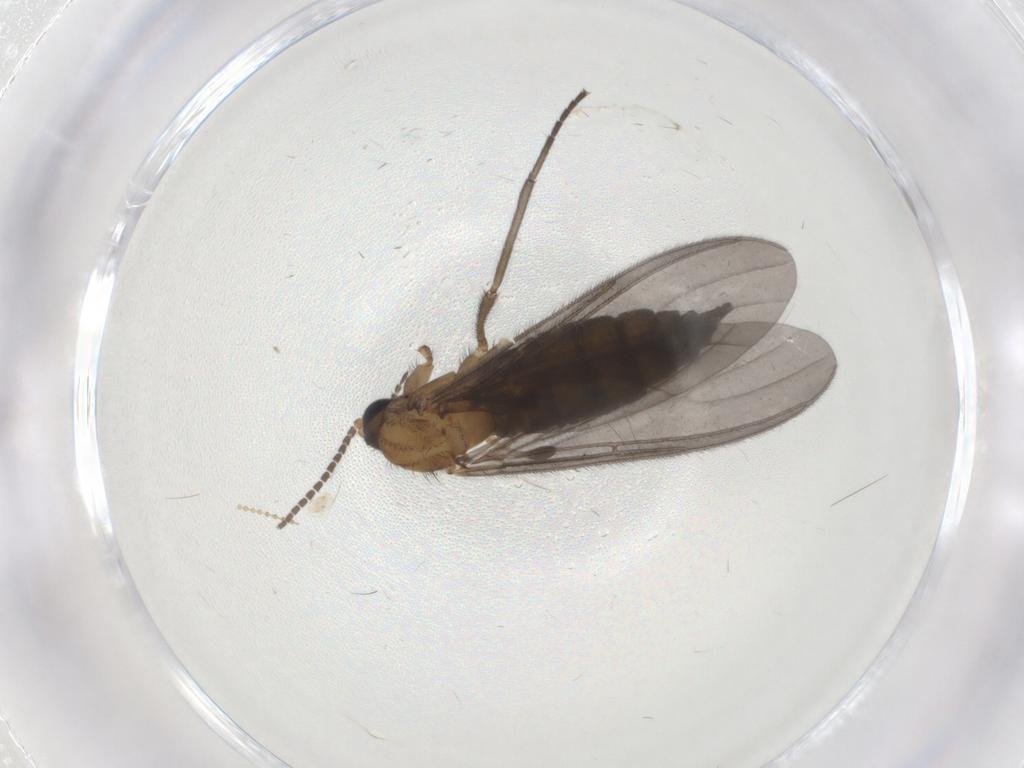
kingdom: Animalia
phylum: Arthropoda
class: Insecta
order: Diptera
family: Cecidomyiidae
